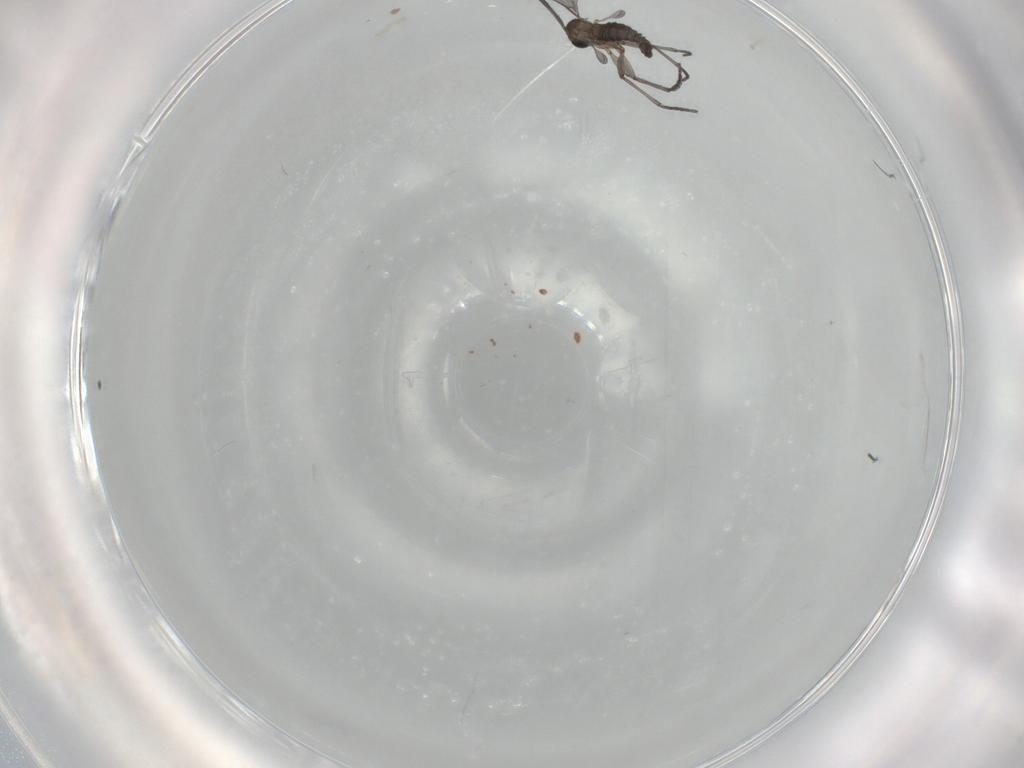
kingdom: Animalia
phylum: Arthropoda
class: Insecta
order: Diptera
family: Sciaridae
